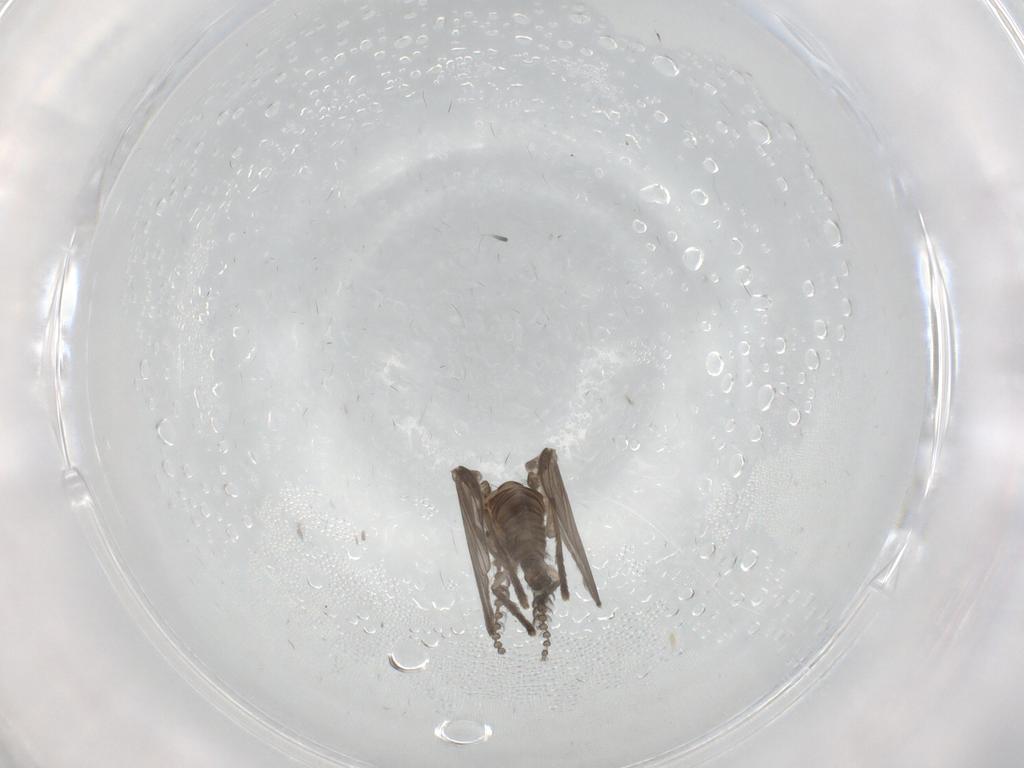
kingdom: Animalia
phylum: Arthropoda
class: Insecta
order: Diptera
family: Psychodidae
